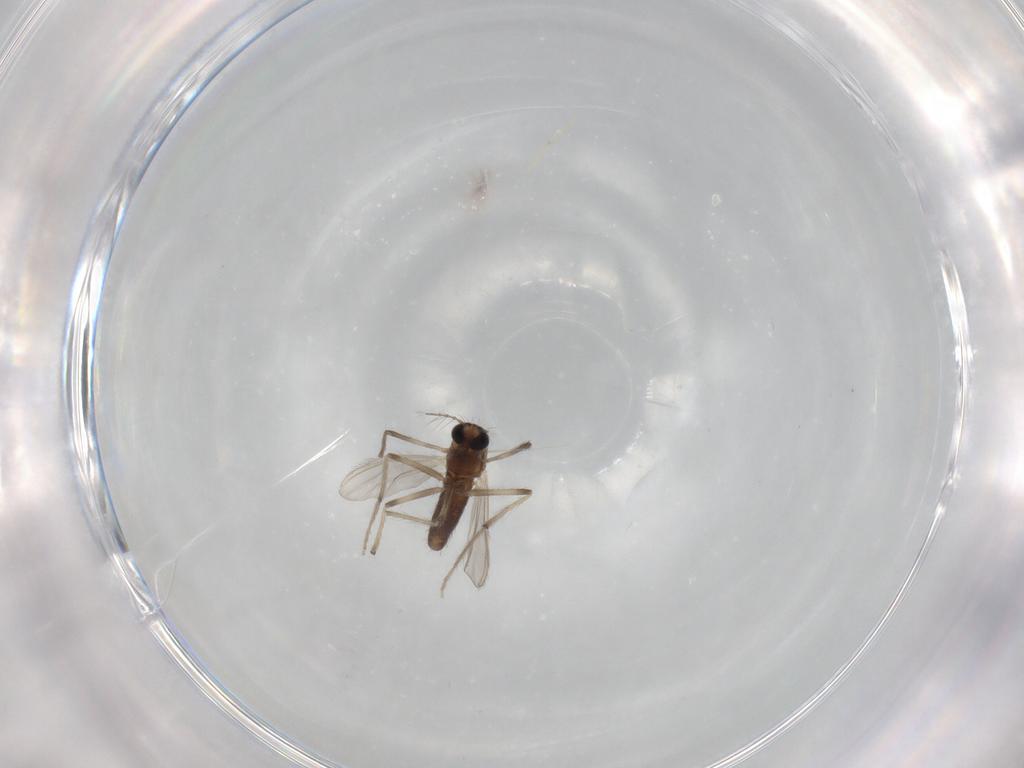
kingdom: Animalia
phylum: Arthropoda
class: Insecta
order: Diptera
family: Chironomidae
